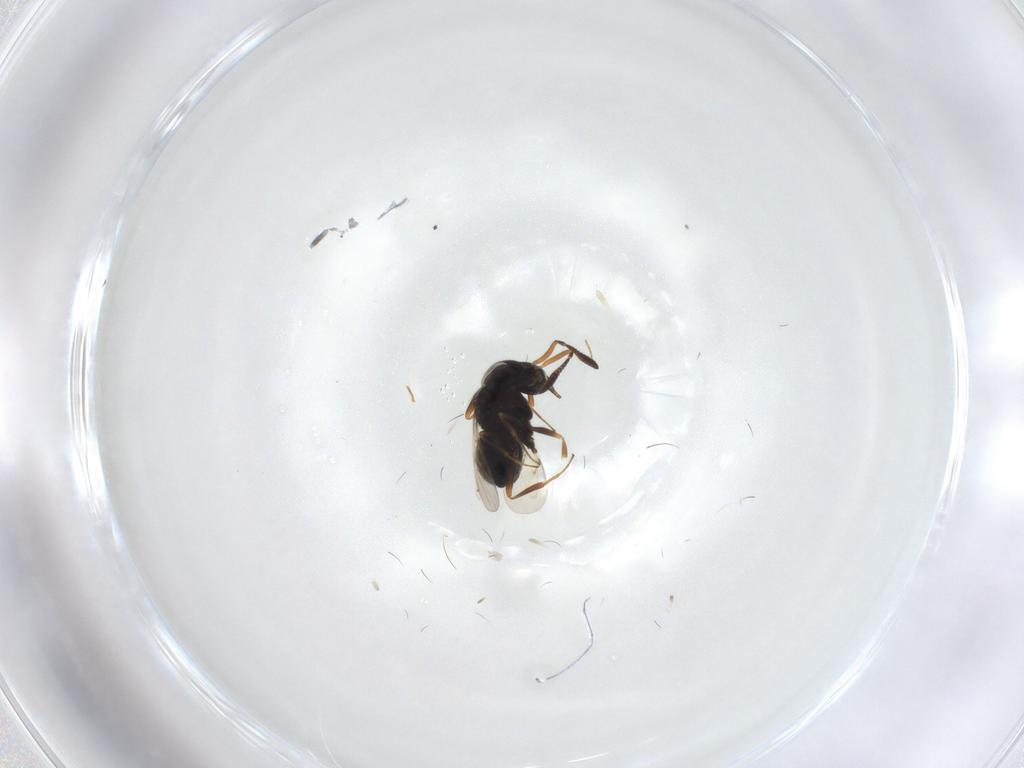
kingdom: Animalia
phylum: Arthropoda
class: Insecta
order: Hymenoptera
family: Scelionidae
